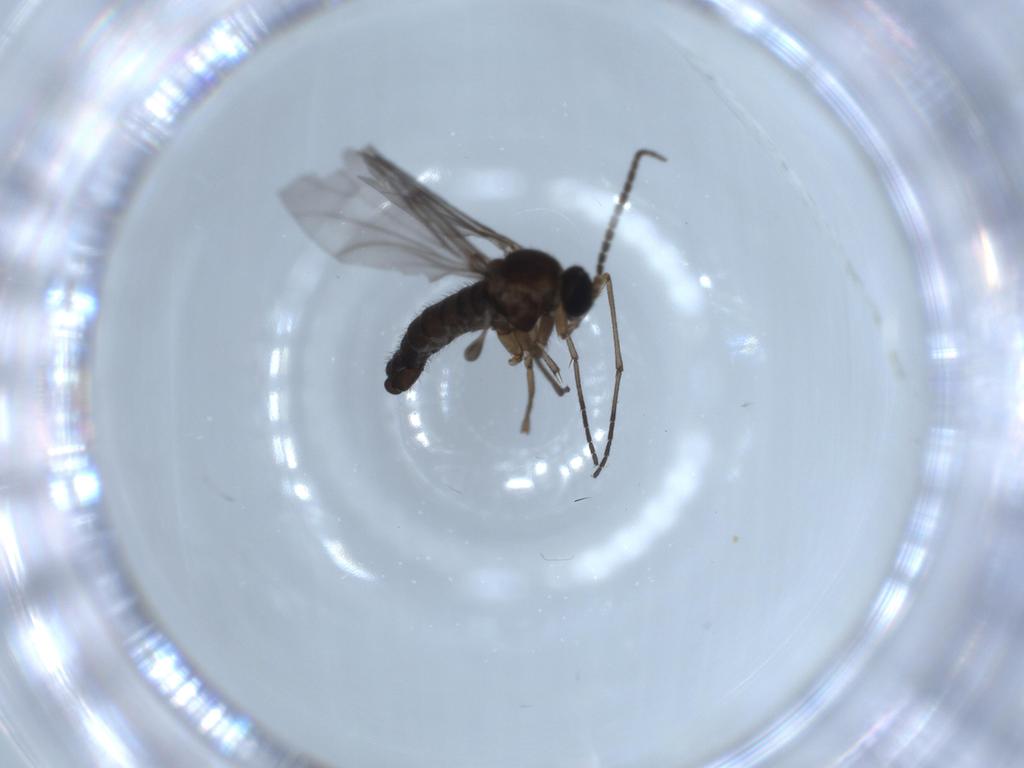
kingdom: Animalia
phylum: Arthropoda
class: Insecta
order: Diptera
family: Sciaridae
